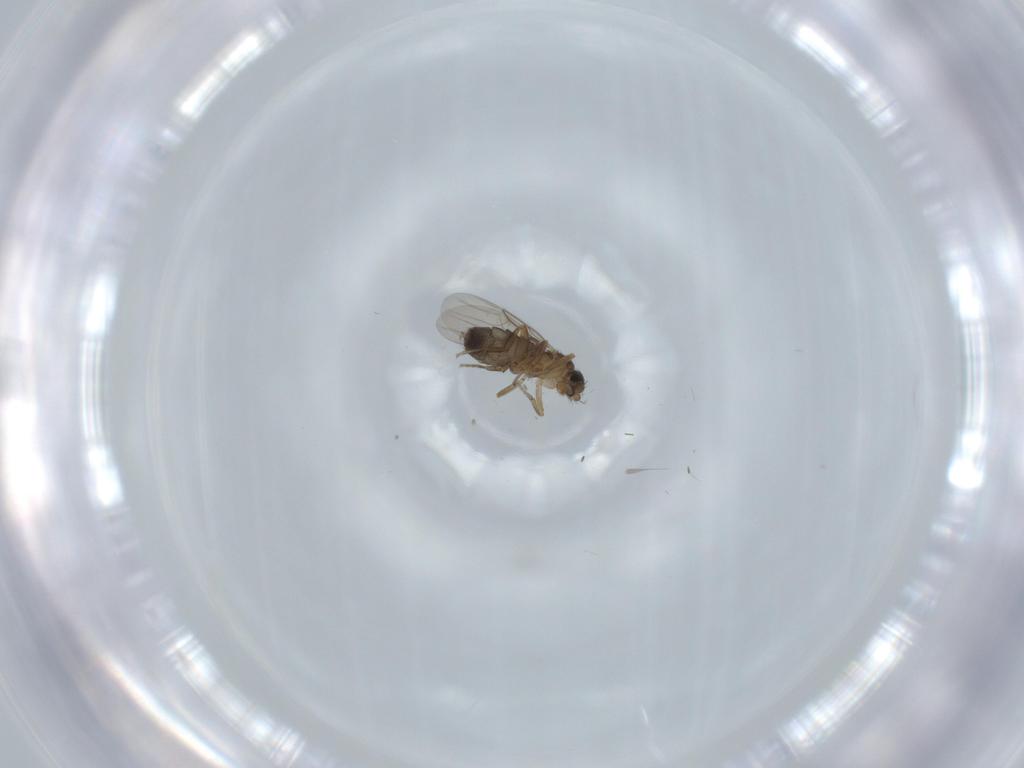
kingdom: Animalia
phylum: Arthropoda
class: Insecta
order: Diptera
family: Phoridae
